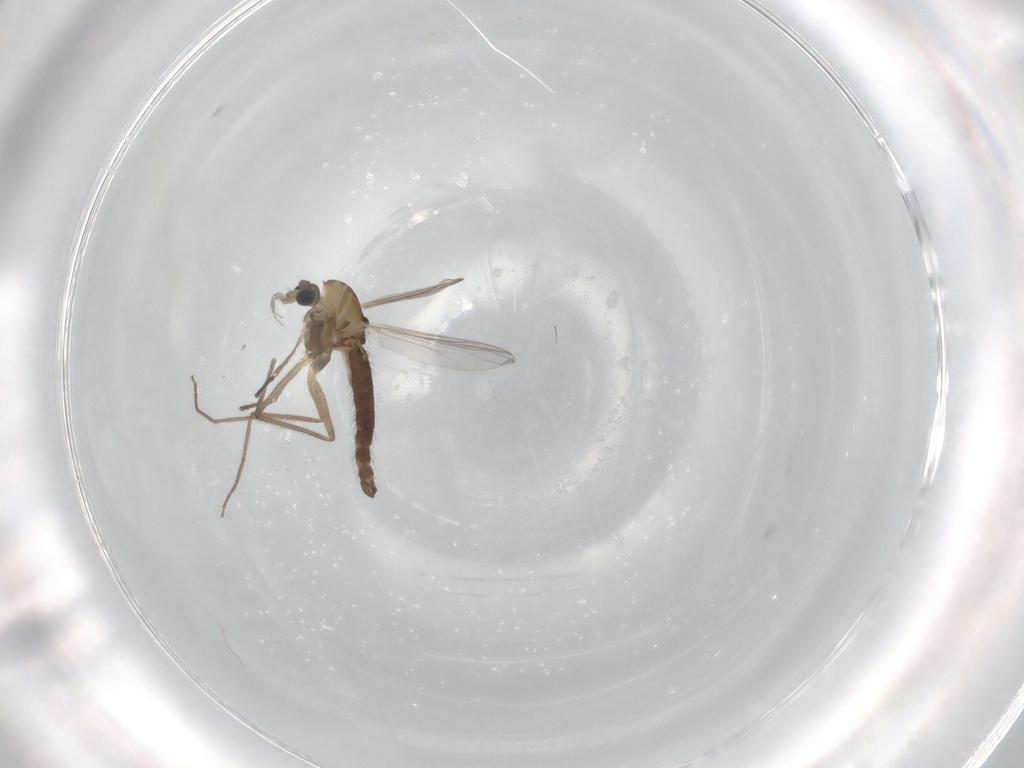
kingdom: Animalia
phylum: Arthropoda
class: Insecta
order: Diptera
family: Chironomidae
